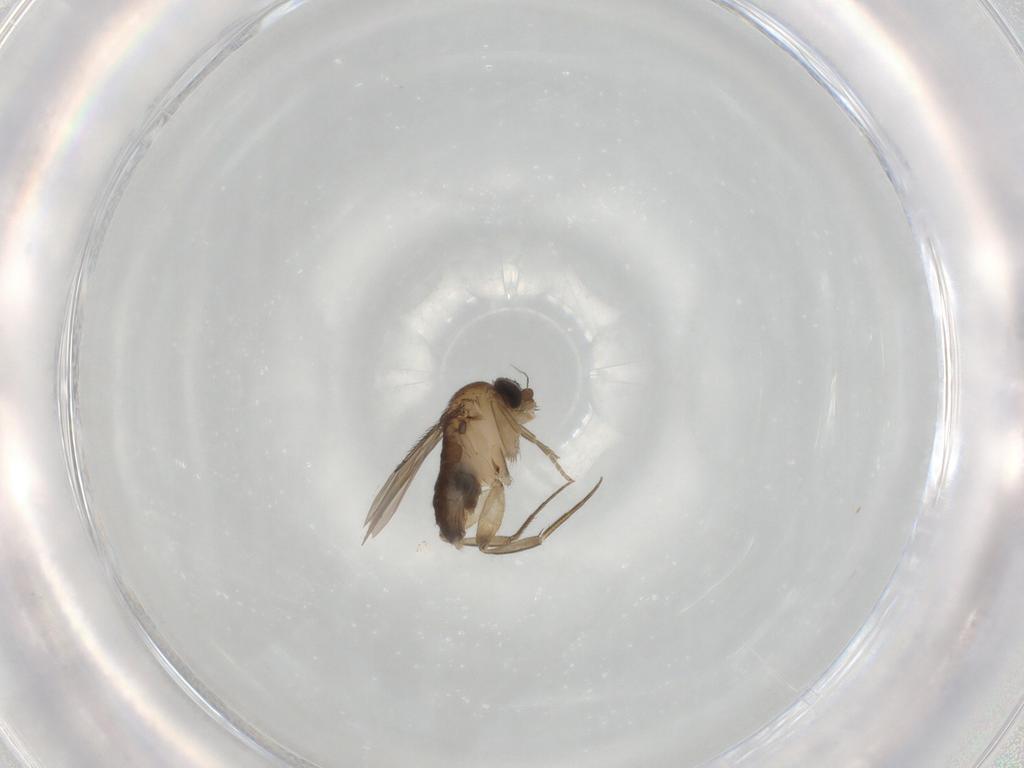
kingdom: Animalia
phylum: Arthropoda
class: Insecta
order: Diptera
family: Phoridae
